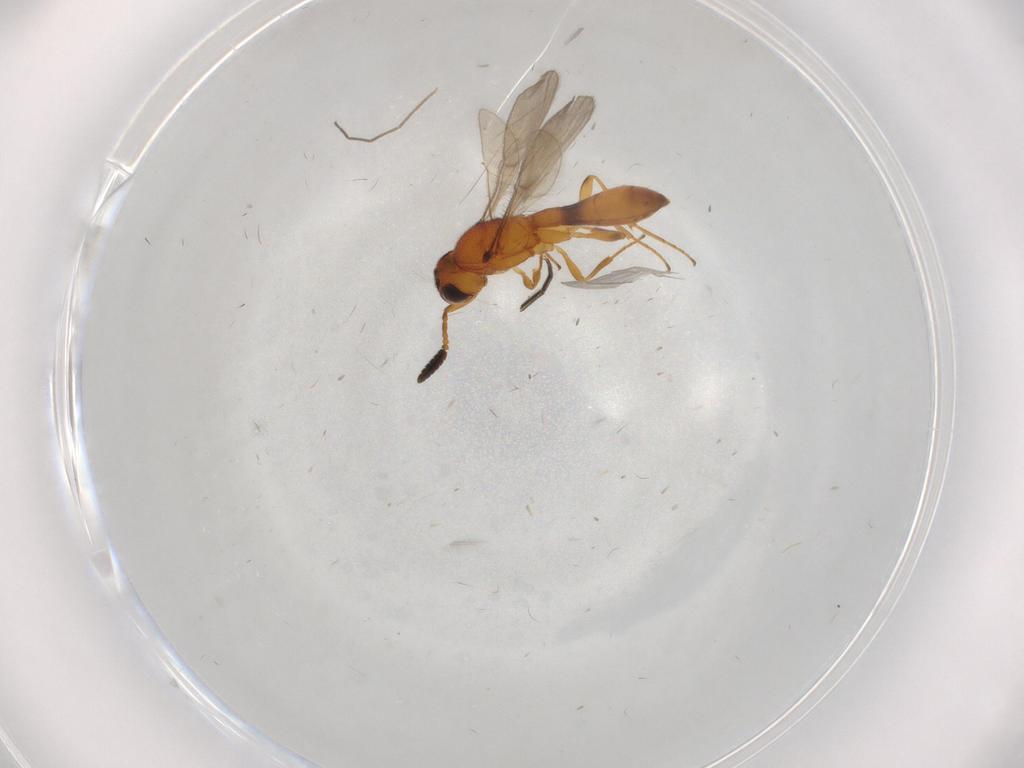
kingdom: Animalia
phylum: Arthropoda
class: Insecta
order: Hymenoptera
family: Scelionidae
